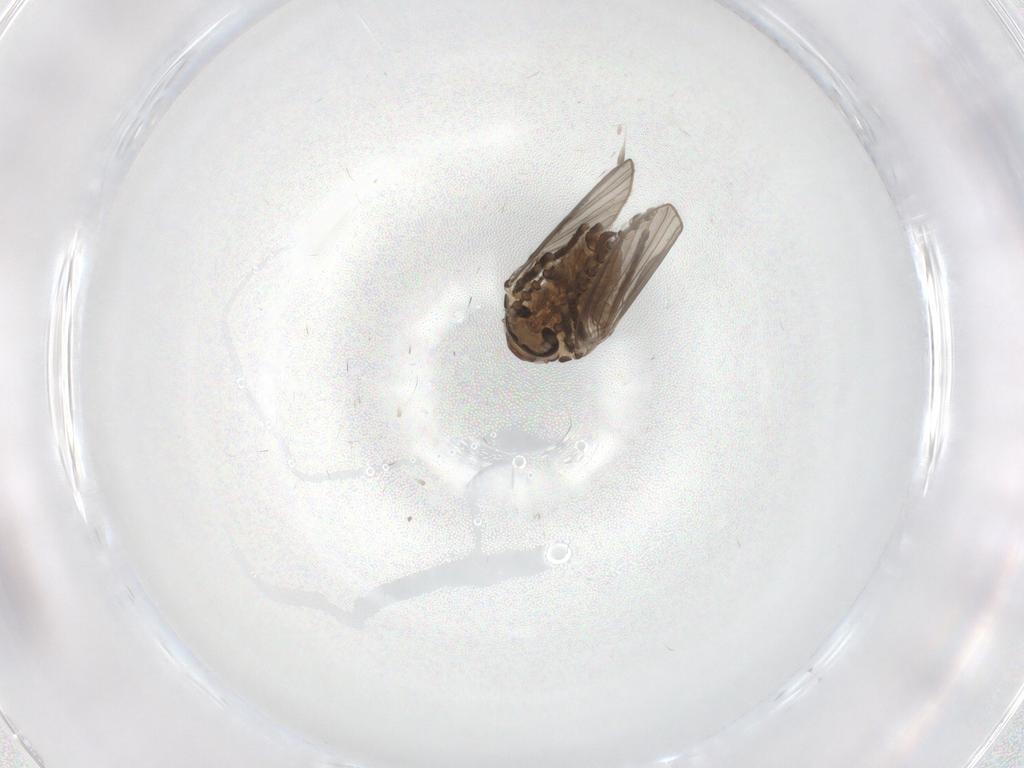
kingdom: Animalia
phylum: Arthropoda
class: Insecta
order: Diptera
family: Psychodidae
